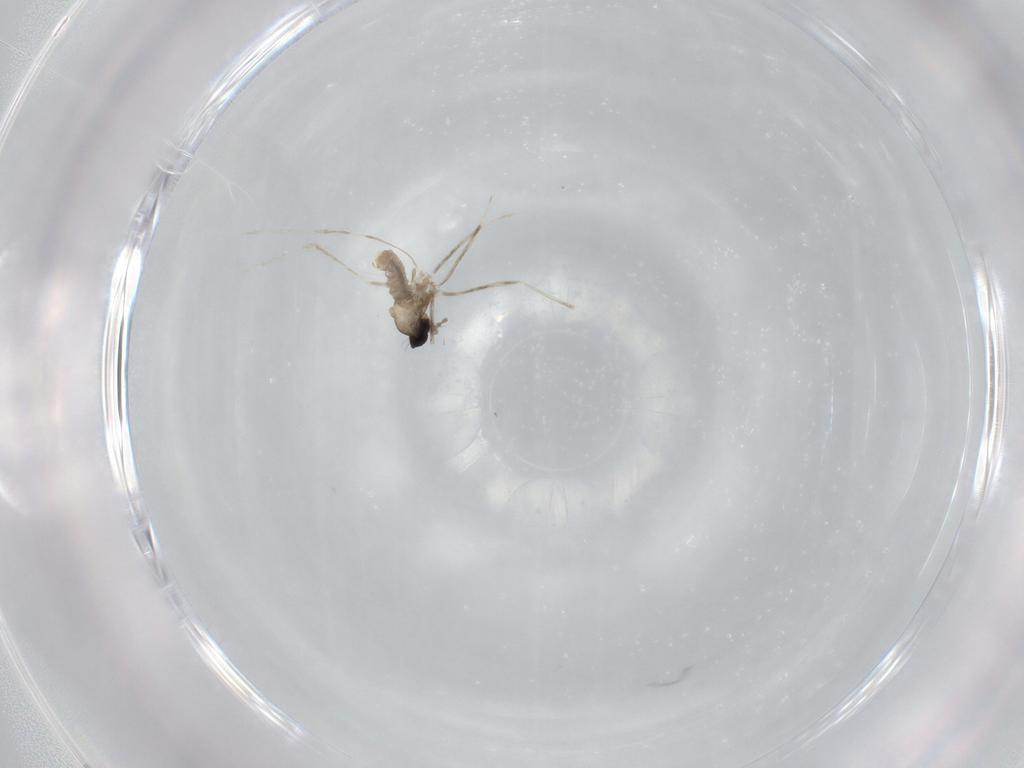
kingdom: Animalia
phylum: Arthropoda
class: Insecta
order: Diptera
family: Cecidomyiidae
